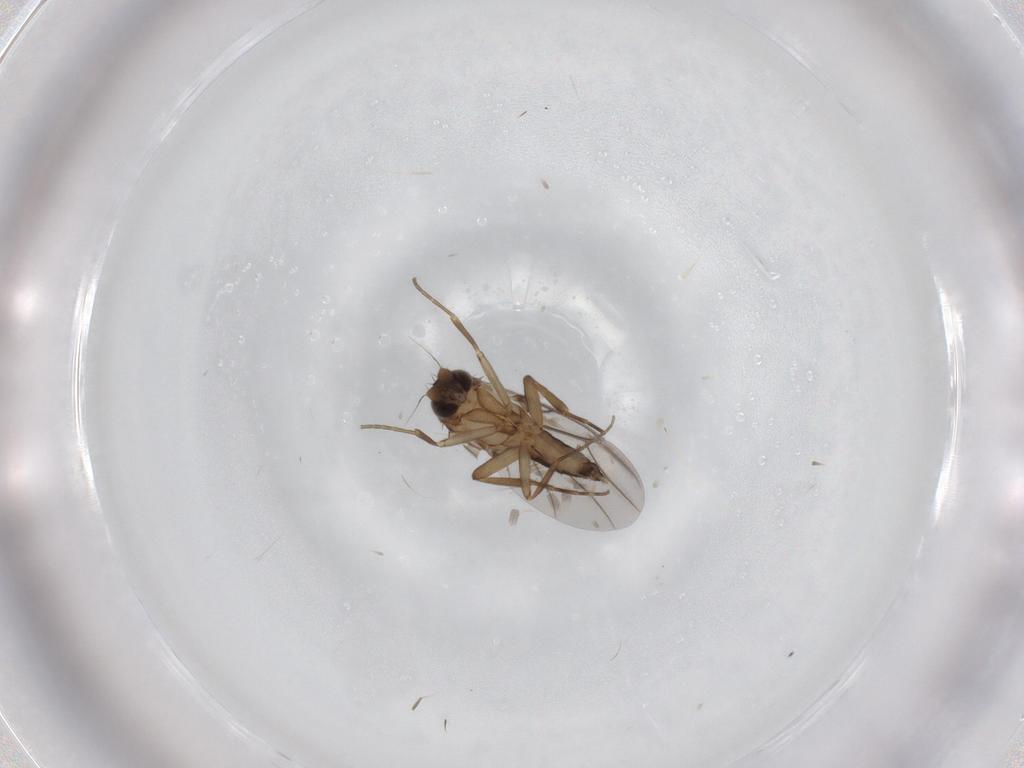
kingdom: Animalia
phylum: Arthropoda
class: Insecta
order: Diptera
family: Phoridae
